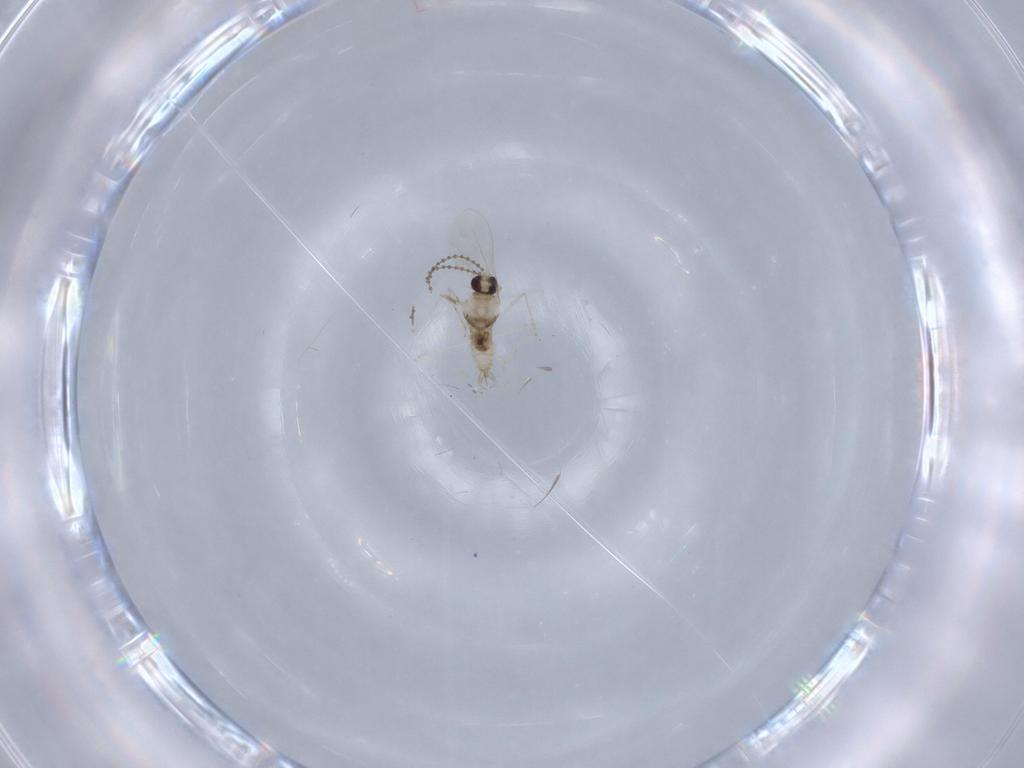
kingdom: Animalia
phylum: Arthropoda
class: Insecta
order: Diptera
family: Cecidomyiidae
